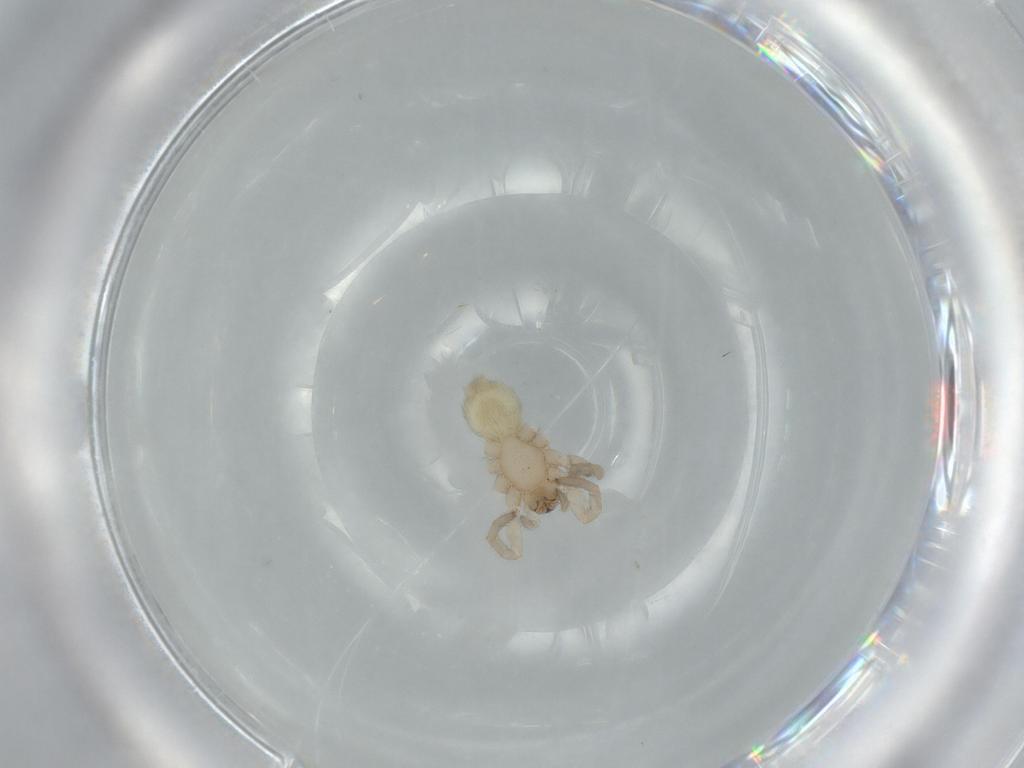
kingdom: Animalia
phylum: Arthropoda
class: Arachnida
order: Araneae
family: Gnaphosidae
